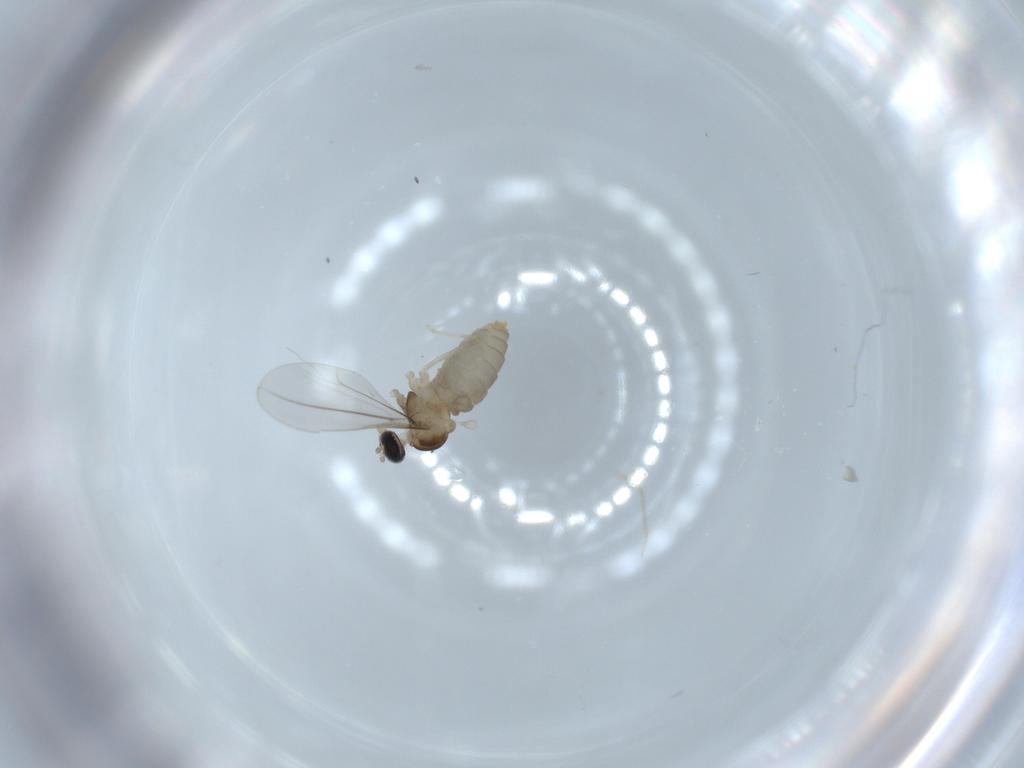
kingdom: Animalia
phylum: Arthropoda
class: Insecta
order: Diptera
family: Cecidomyiidae
